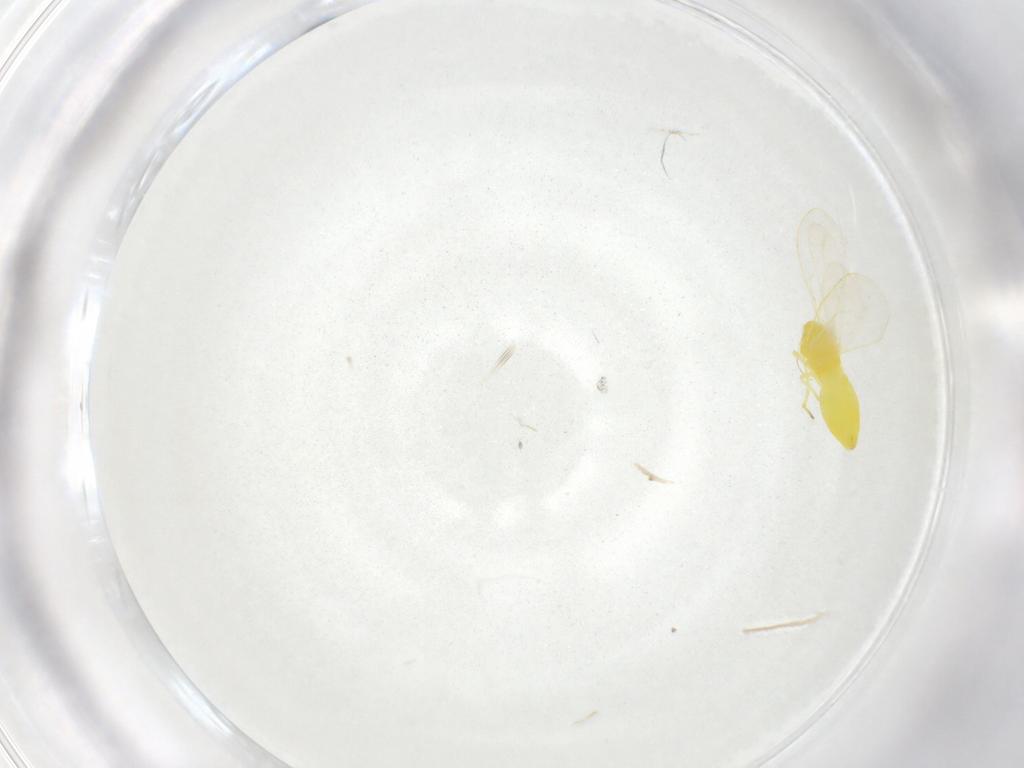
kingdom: Animalia
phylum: Arthropoda
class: Insecta
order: Hemiptera
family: Aleyrodidae
